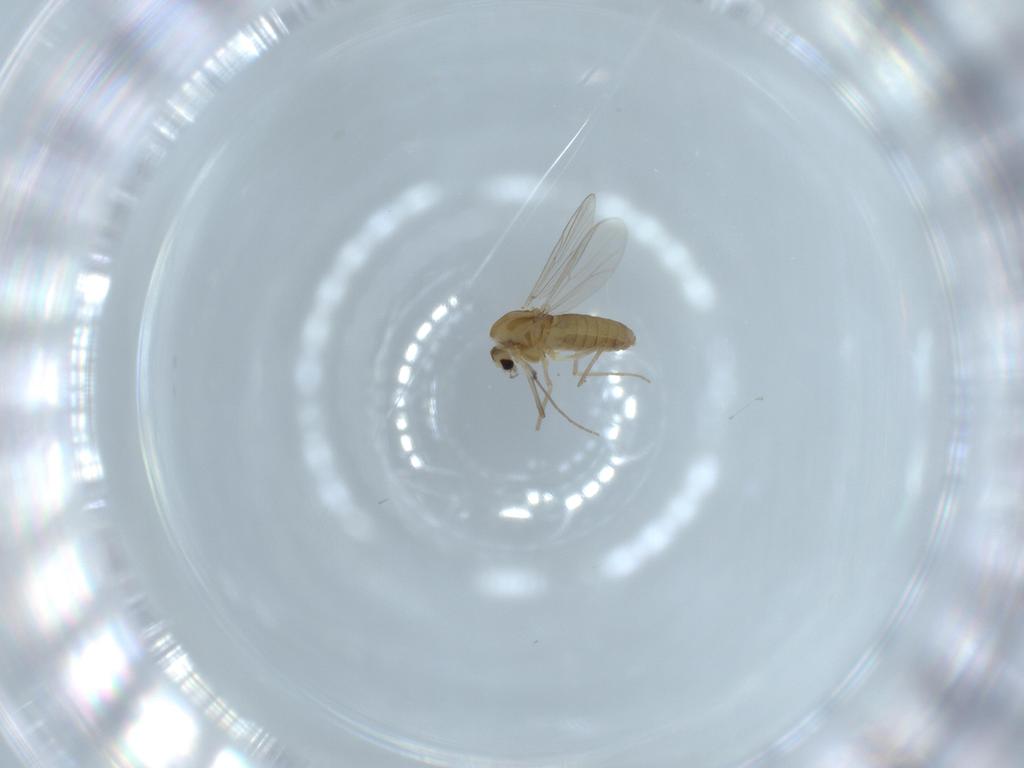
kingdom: Animalia
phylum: Arthropoda
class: Insecta
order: Diptera
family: Chironomidae
